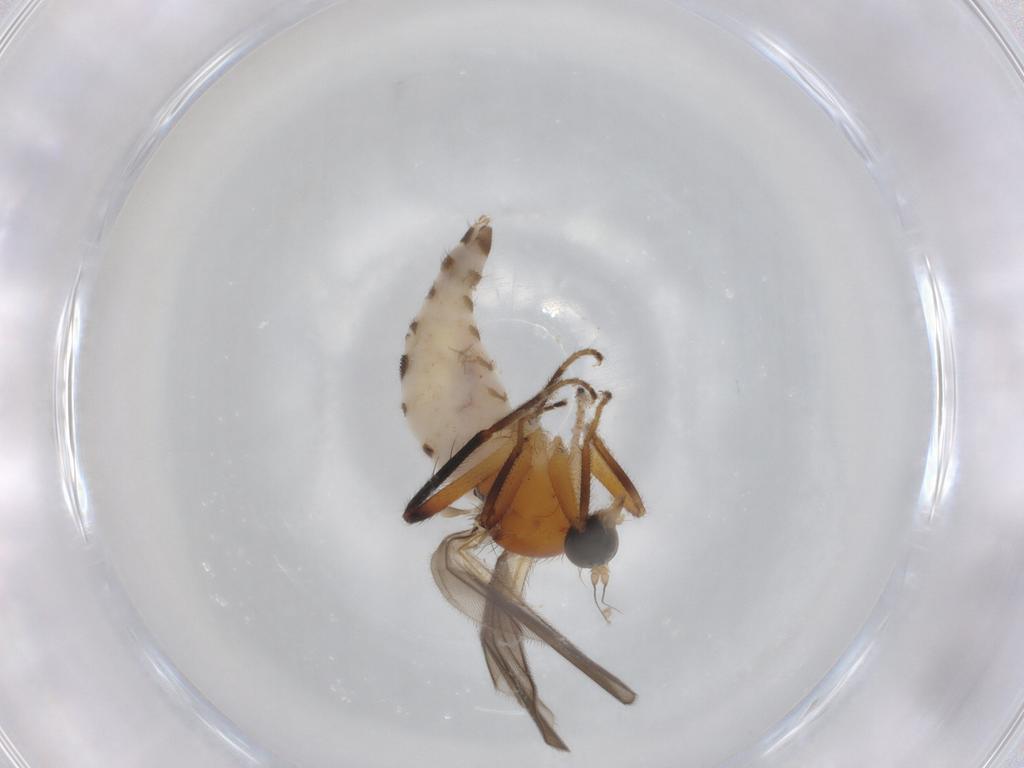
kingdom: Animalia
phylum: Arthropoda
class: Insecta
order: Diptera
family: Hybotidae
